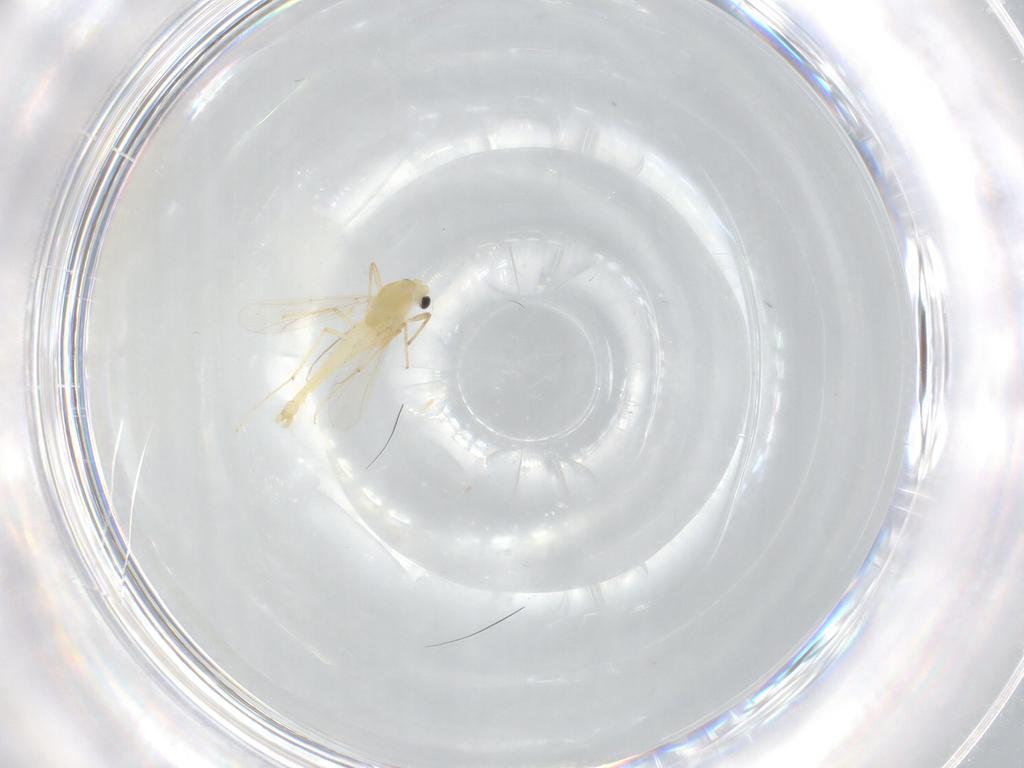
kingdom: Animalia
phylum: Arthropoda
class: Insecta
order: Diptera
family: Chironomidae
